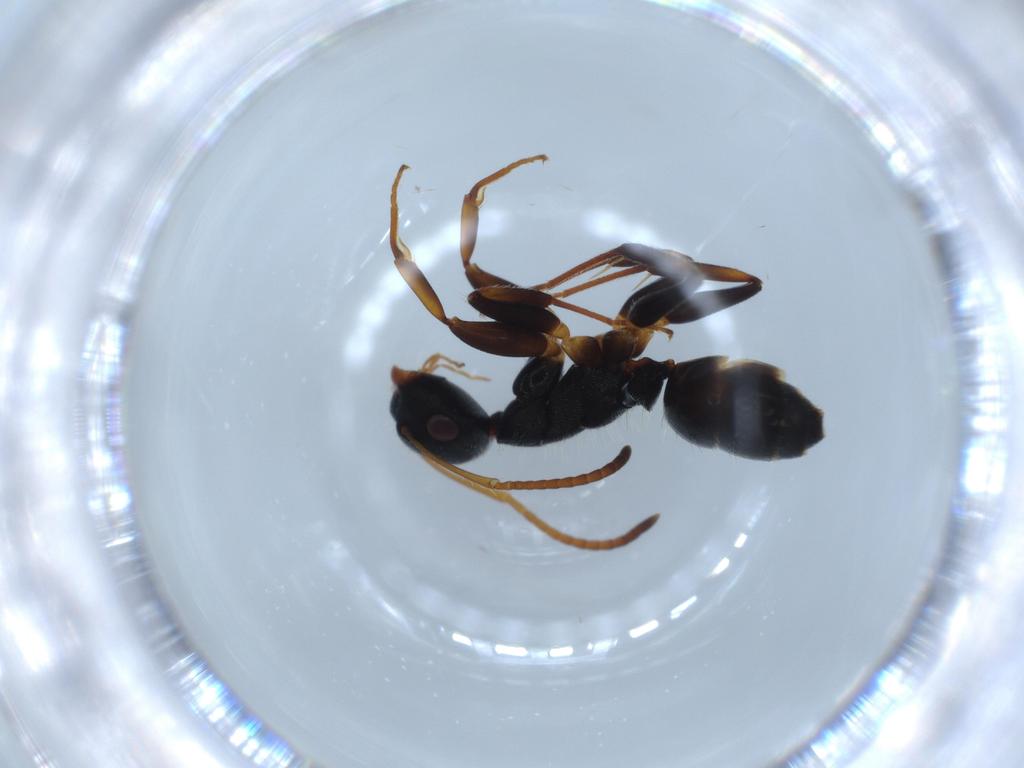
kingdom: Animalia
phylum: Arthropoda
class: Insecta
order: Hymenoptera
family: Formicidae
